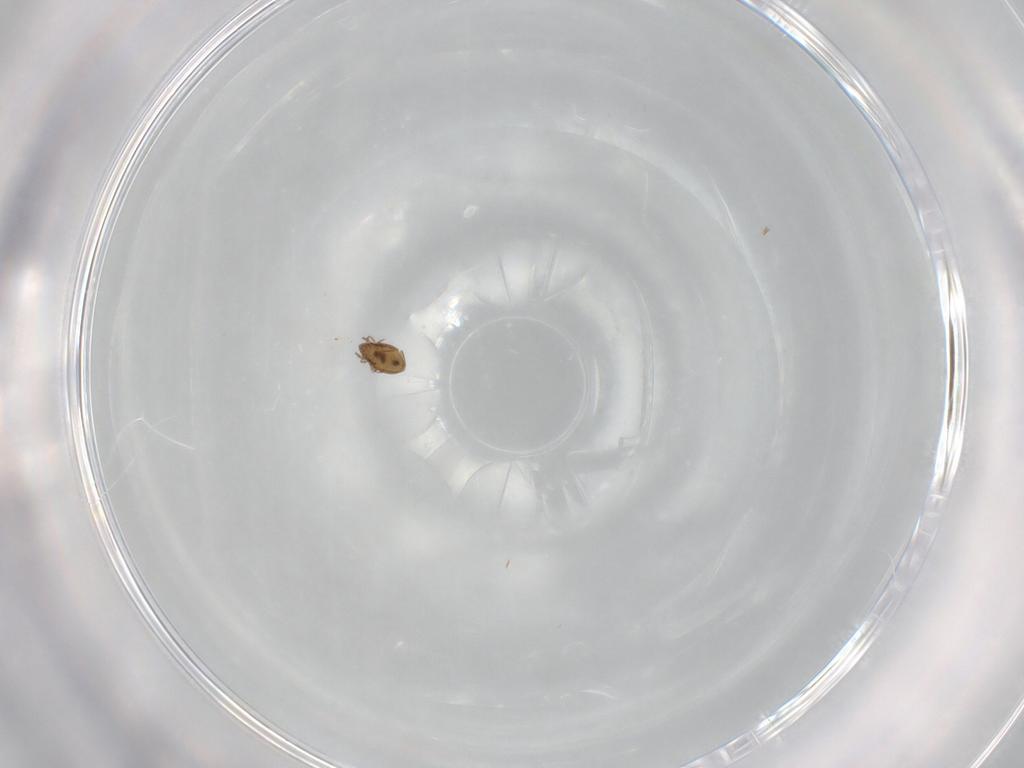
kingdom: Animalia
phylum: Arthropoda
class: Arachnida
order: Sarcoptiformes
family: Oribatulidae
